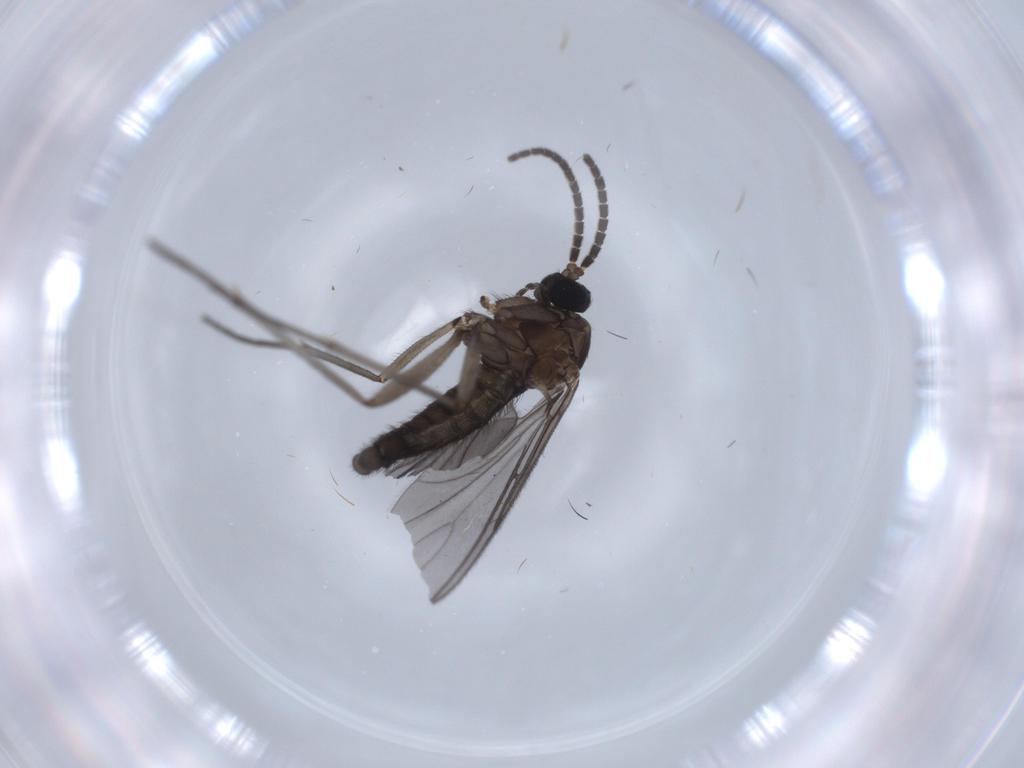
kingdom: Animalia
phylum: Arthropoda
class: Insecta
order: Diptera
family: Sciaridae
